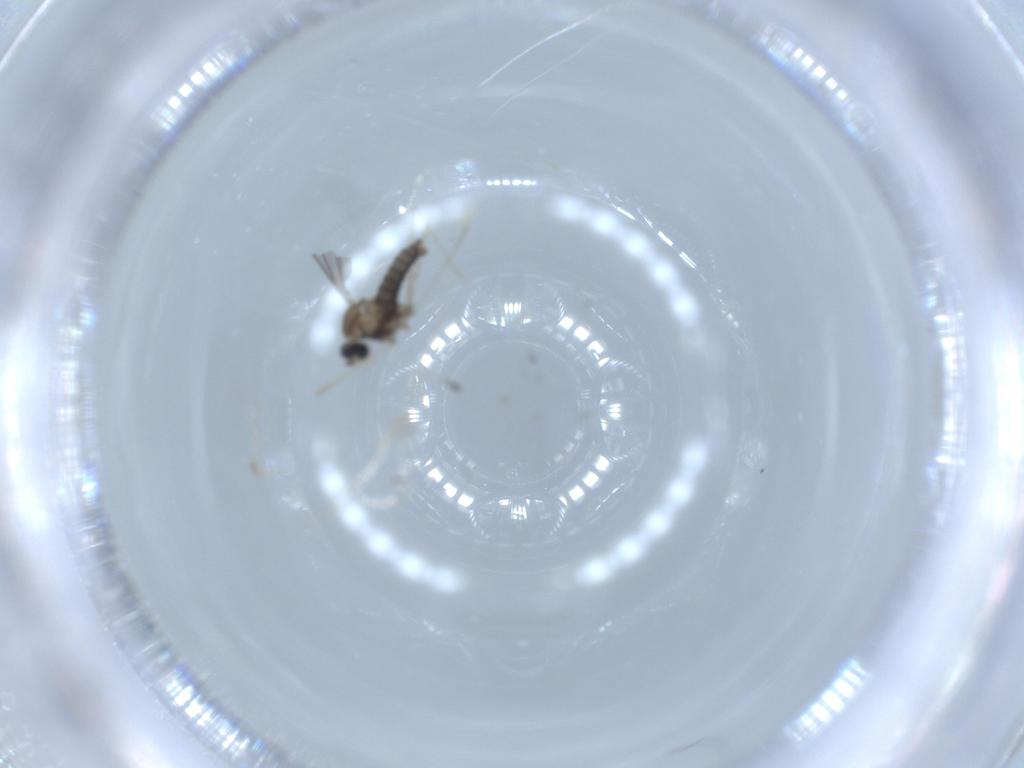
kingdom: Animalia
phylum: Arthropoda
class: Insecta
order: Diptera
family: Cecidomyiidae
